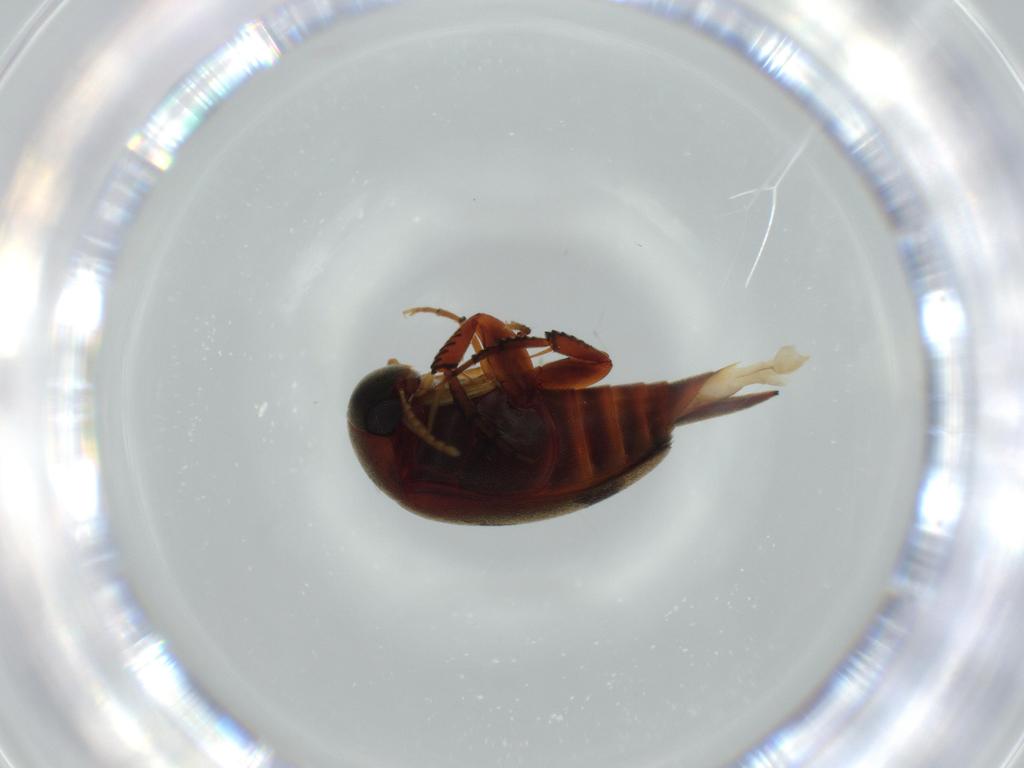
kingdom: Animalia
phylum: Arthropoda
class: Insecta
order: Coleoptera
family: Mordellidae
